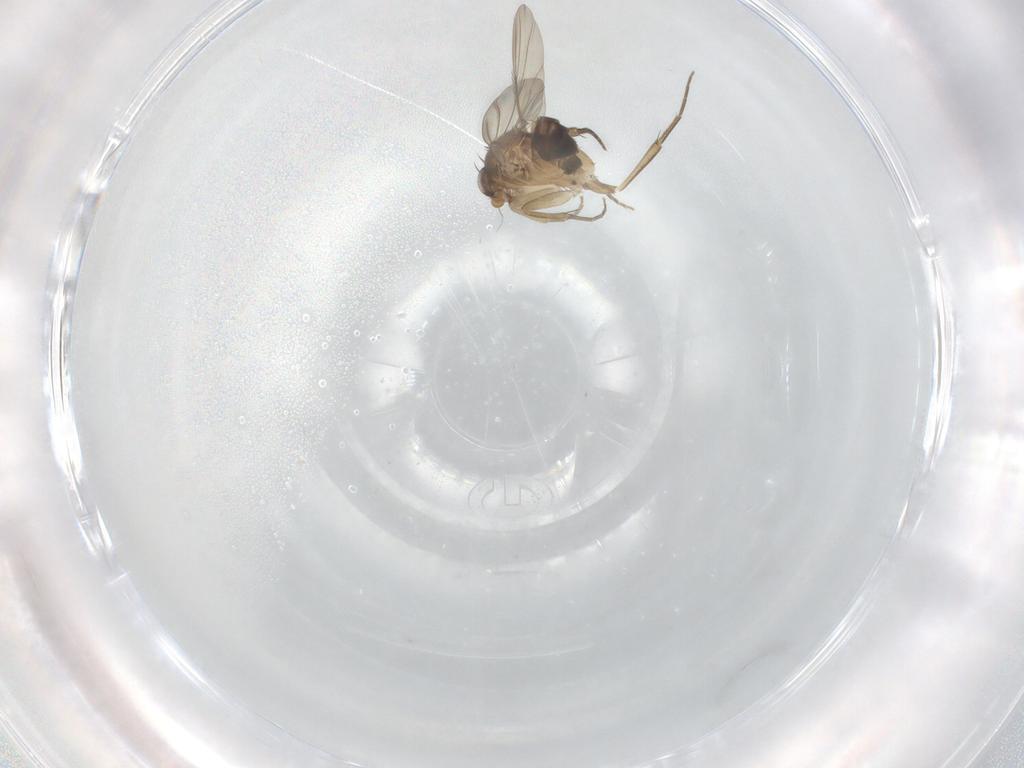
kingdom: Animalia
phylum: Arthropoda
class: Insecta
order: Diptera
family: Phoridae
